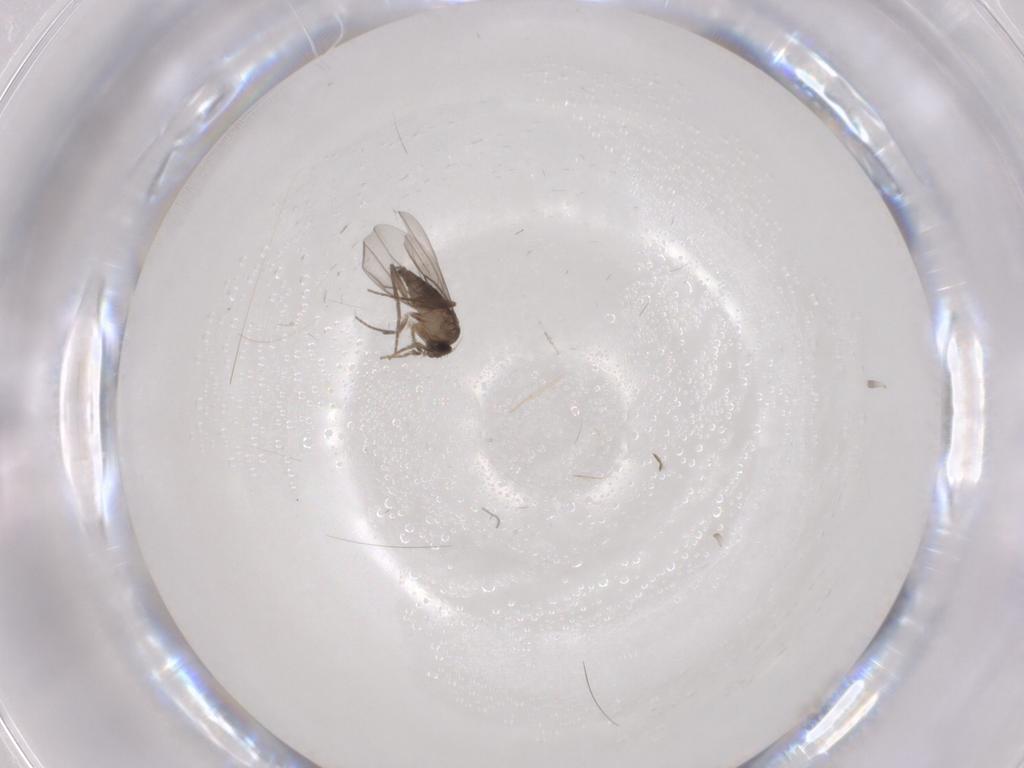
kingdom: Animalia
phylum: Arthropoda
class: Insecta
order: Diptera
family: Phoridae
